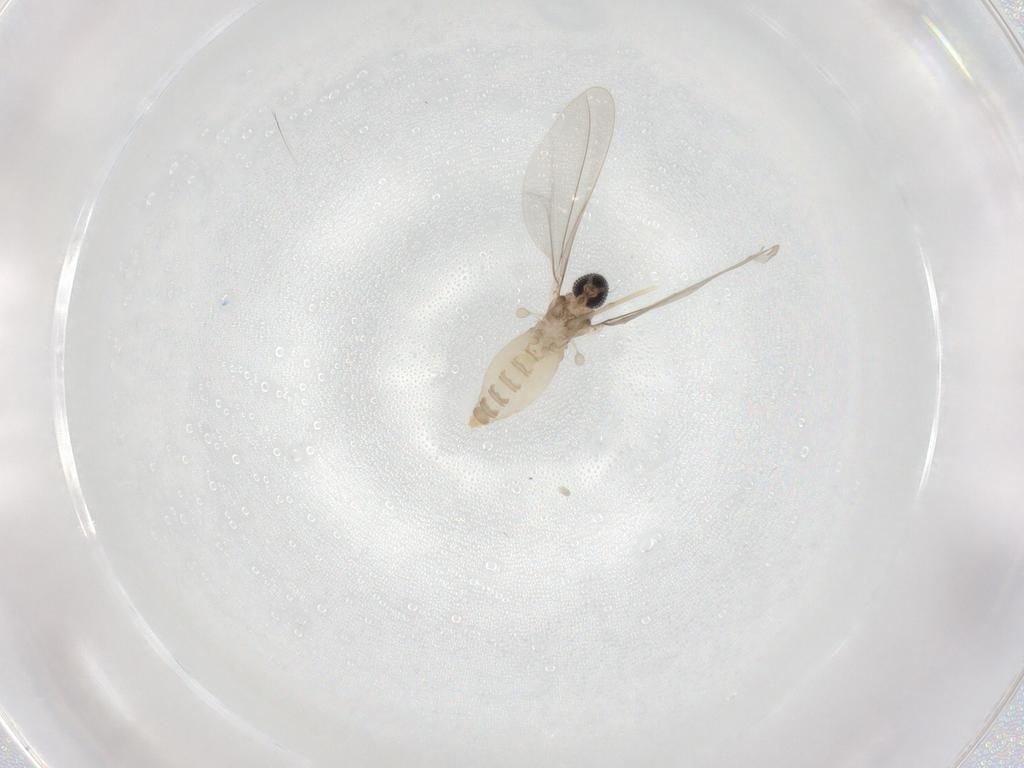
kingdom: Animalia
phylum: Arthropoda
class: Insecta
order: Diptera
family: Cecidomyiidae
